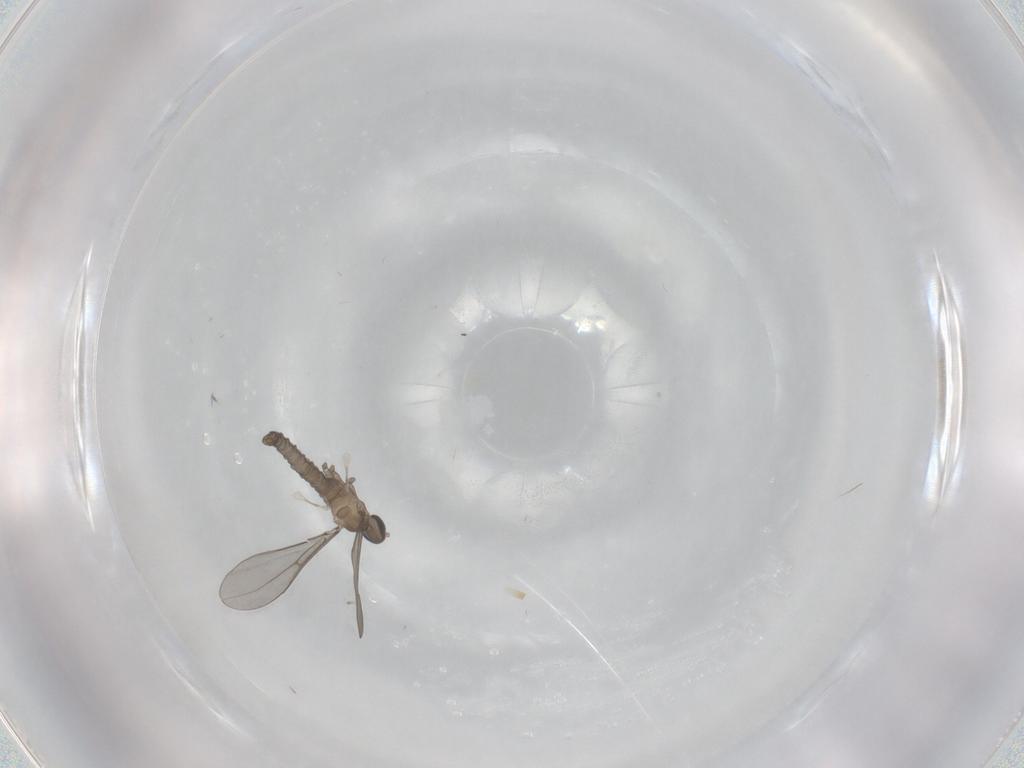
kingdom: Animalia
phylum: Arthropoda
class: Insecta
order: Diptera
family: Cecidomyiidae
